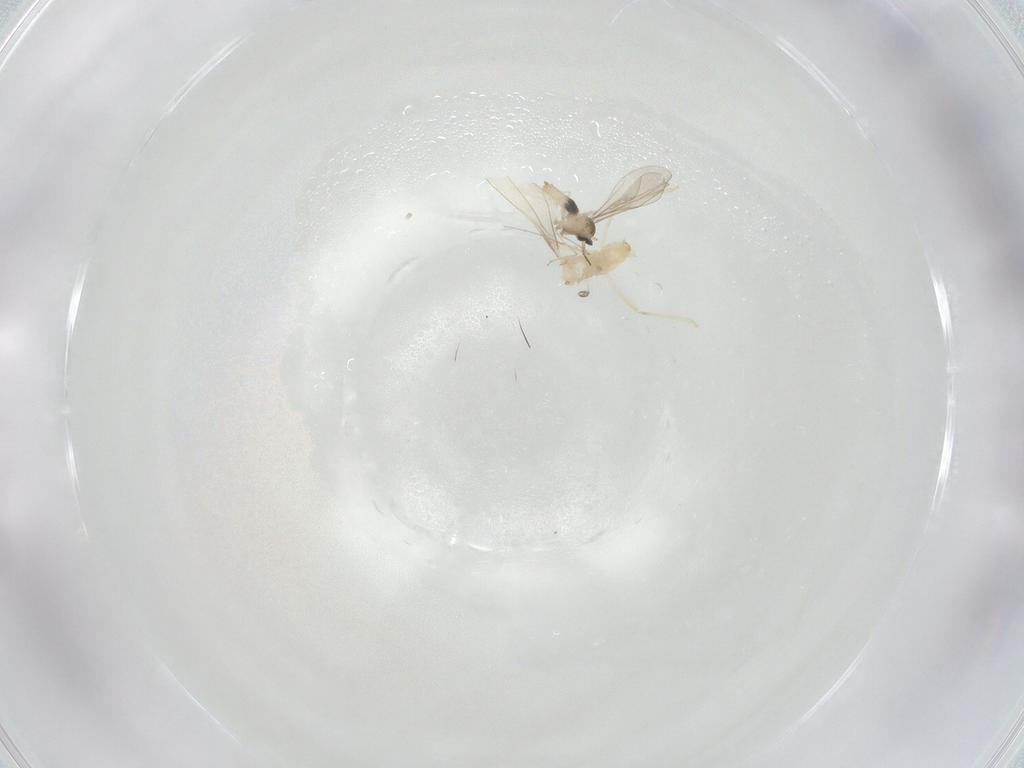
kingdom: Animalia
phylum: Arthropoda
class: Insecta
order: Diptera
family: Cecidomyiidae
